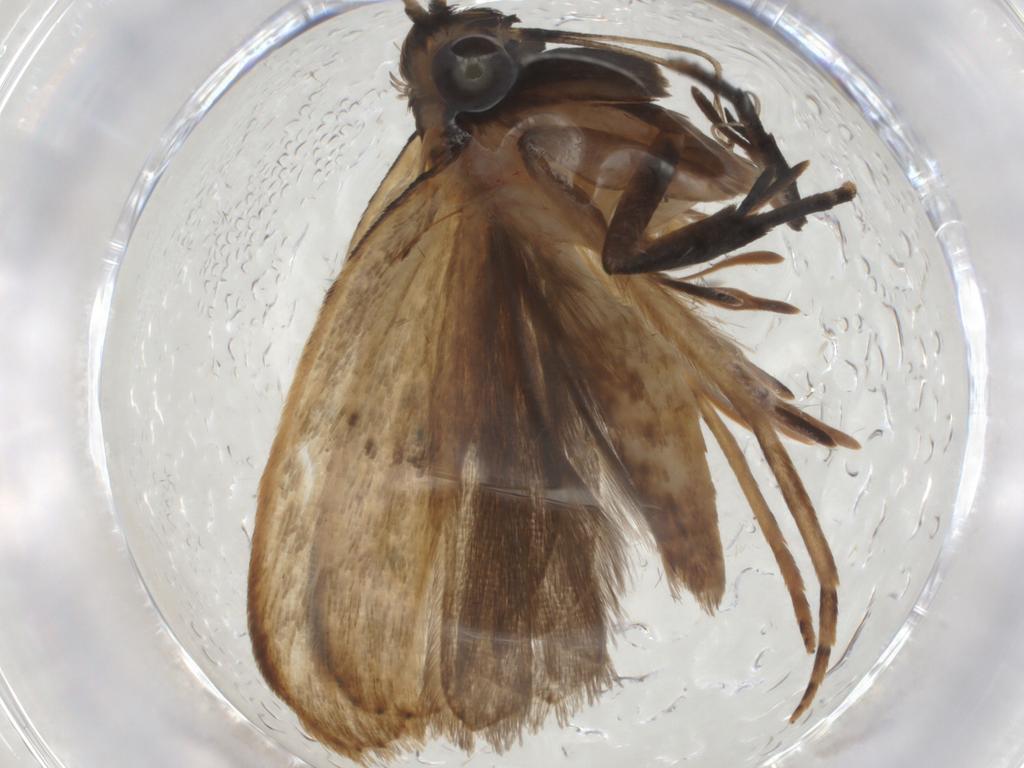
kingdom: Animalia
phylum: Arthropoda
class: Insecta
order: Lepidoptera
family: Gelechiidae
